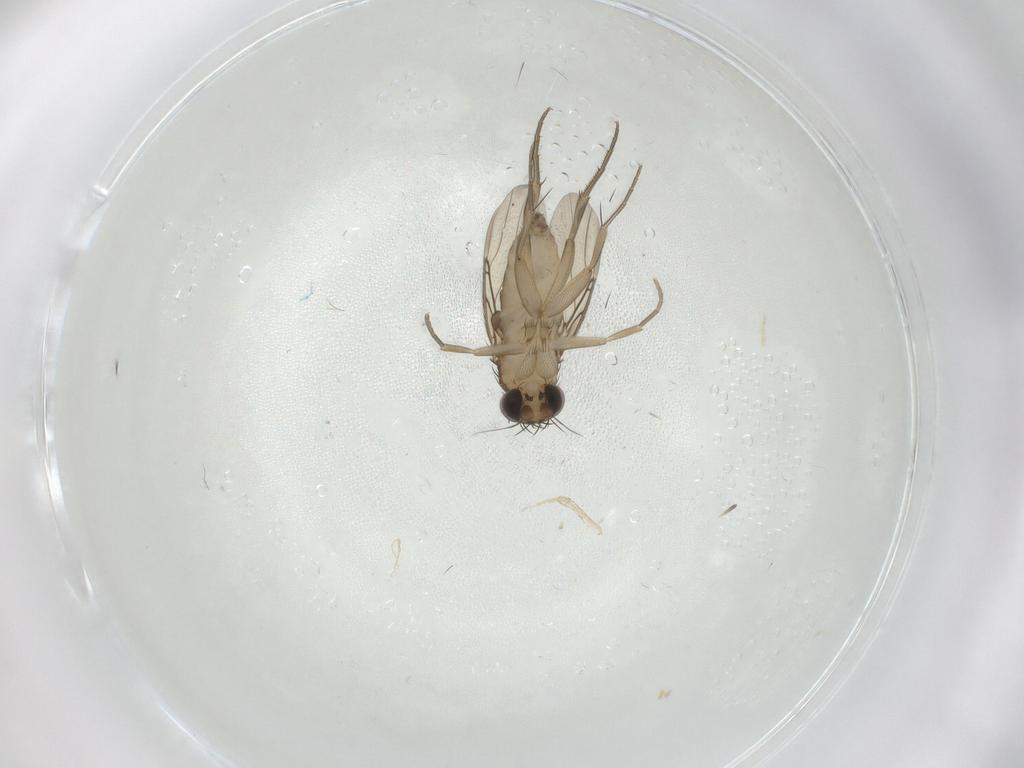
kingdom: Animalia
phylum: Arthropoda
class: Insecta
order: Diptera
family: Phoridae
